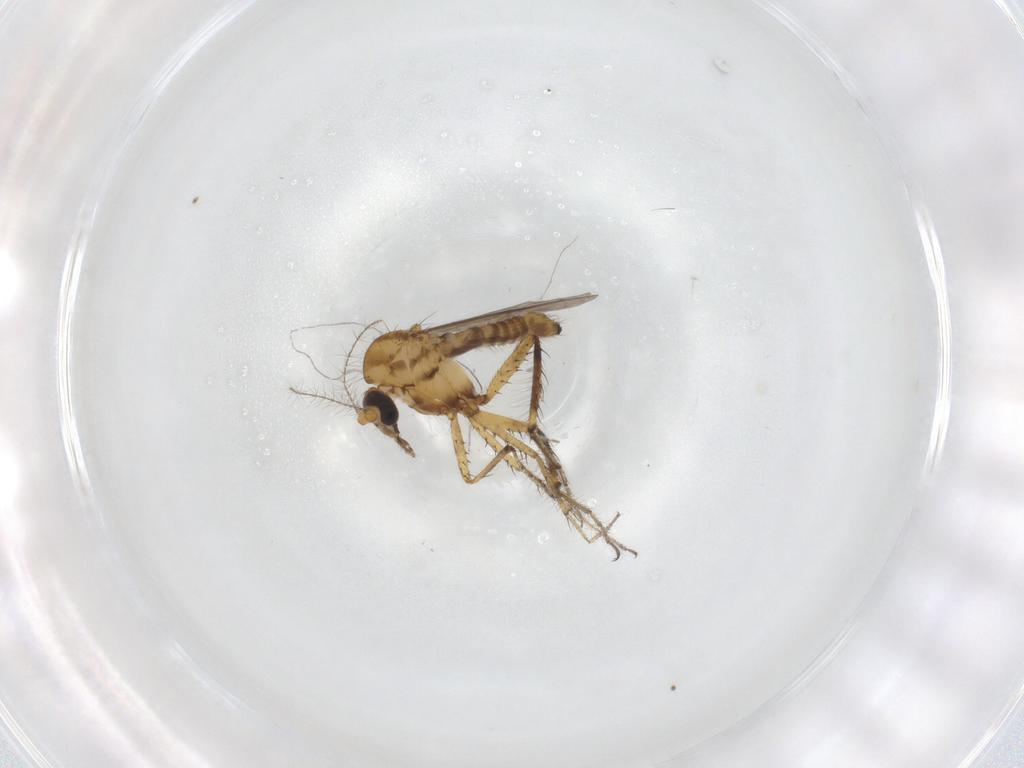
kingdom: Animalia
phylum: Arthropoda
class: Insecta
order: Diptera
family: Ceratopogonidae
